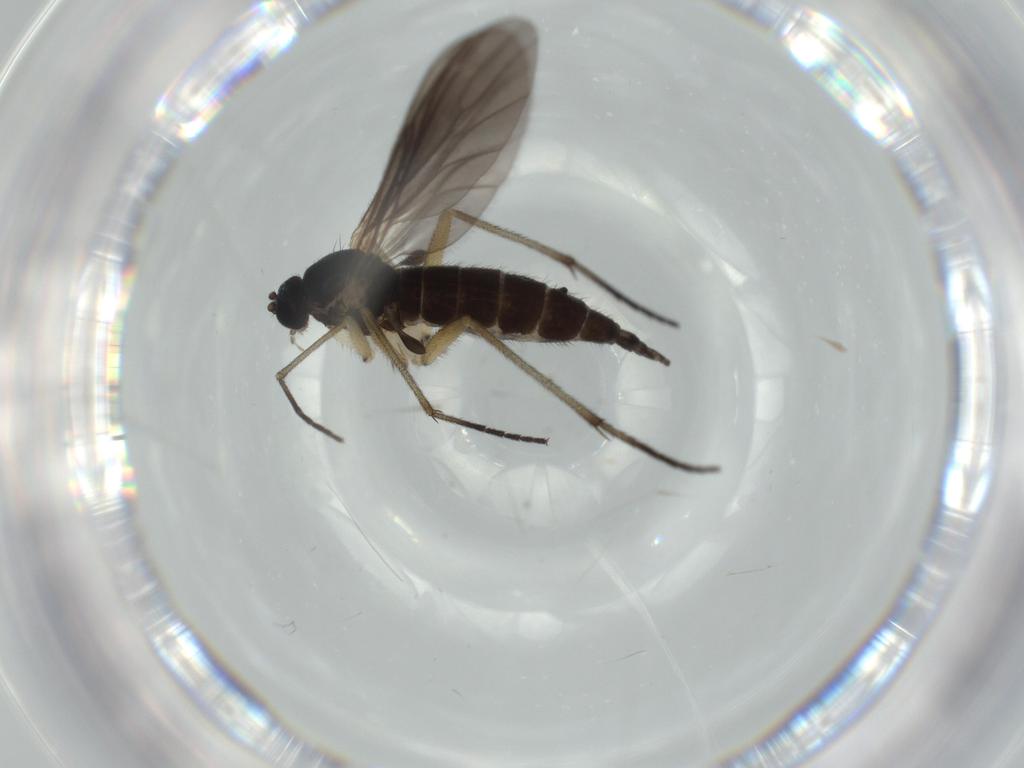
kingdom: Animalia
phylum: Arthropoda
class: Insecta
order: Diptera
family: Sciaridae
